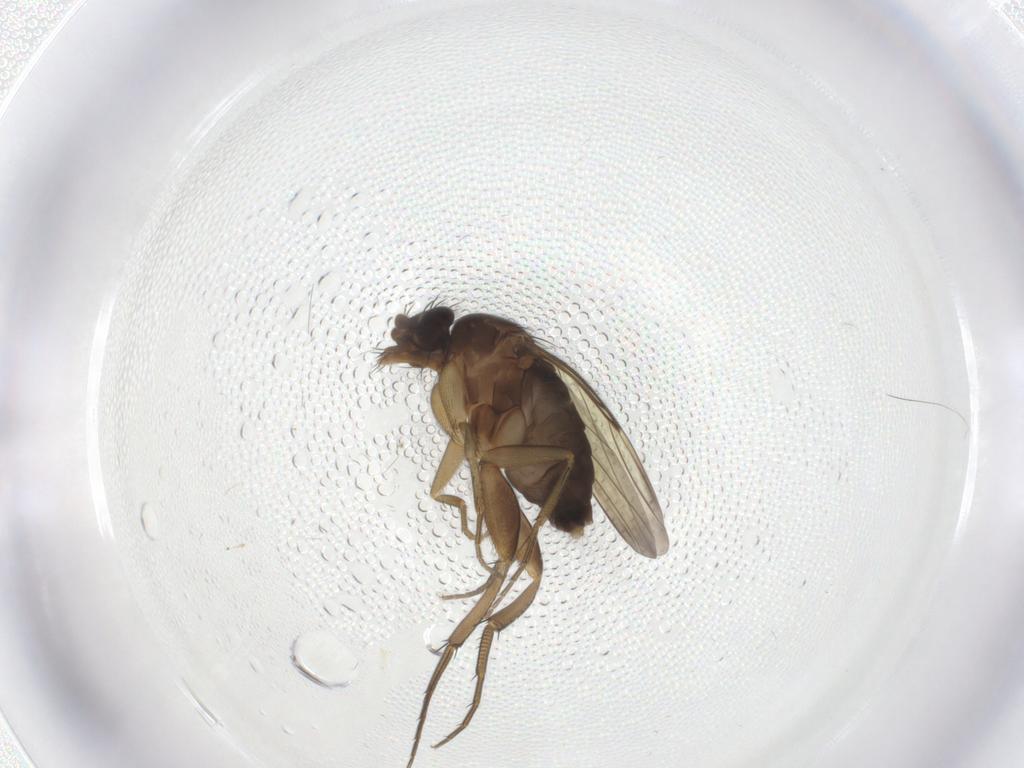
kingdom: Animalia
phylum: Arthropoda
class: Insecta
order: Diptera
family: Phoridae
